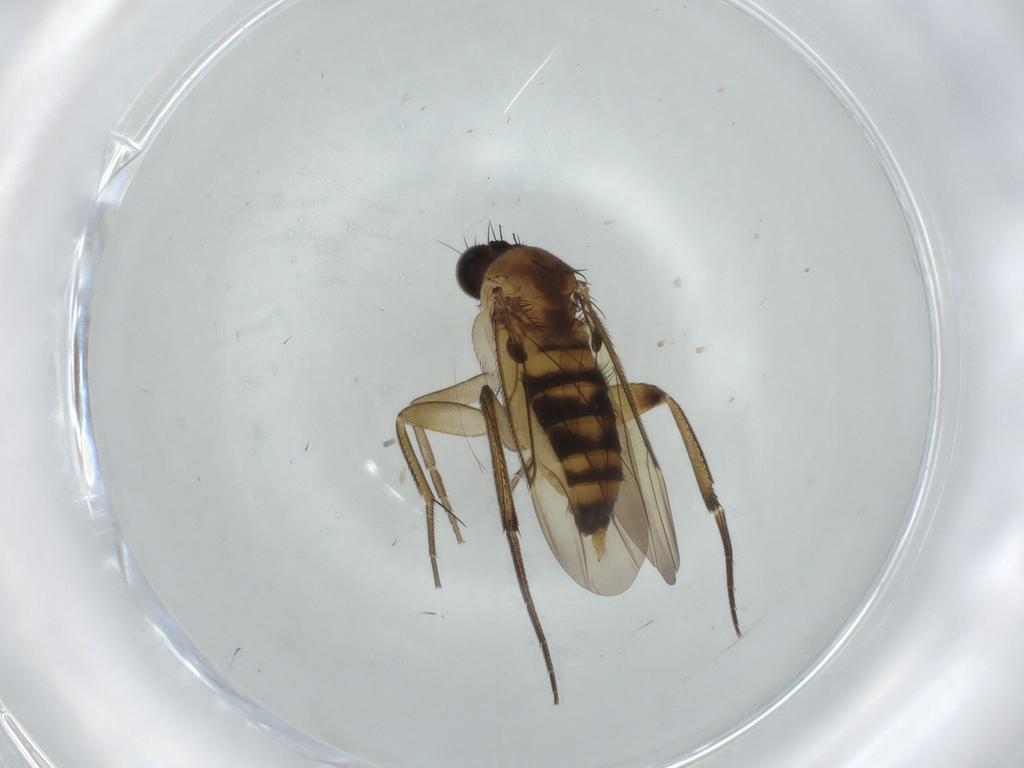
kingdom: Animalia
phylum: Arthropoda
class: Insecta
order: Diptera
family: Phoridae
